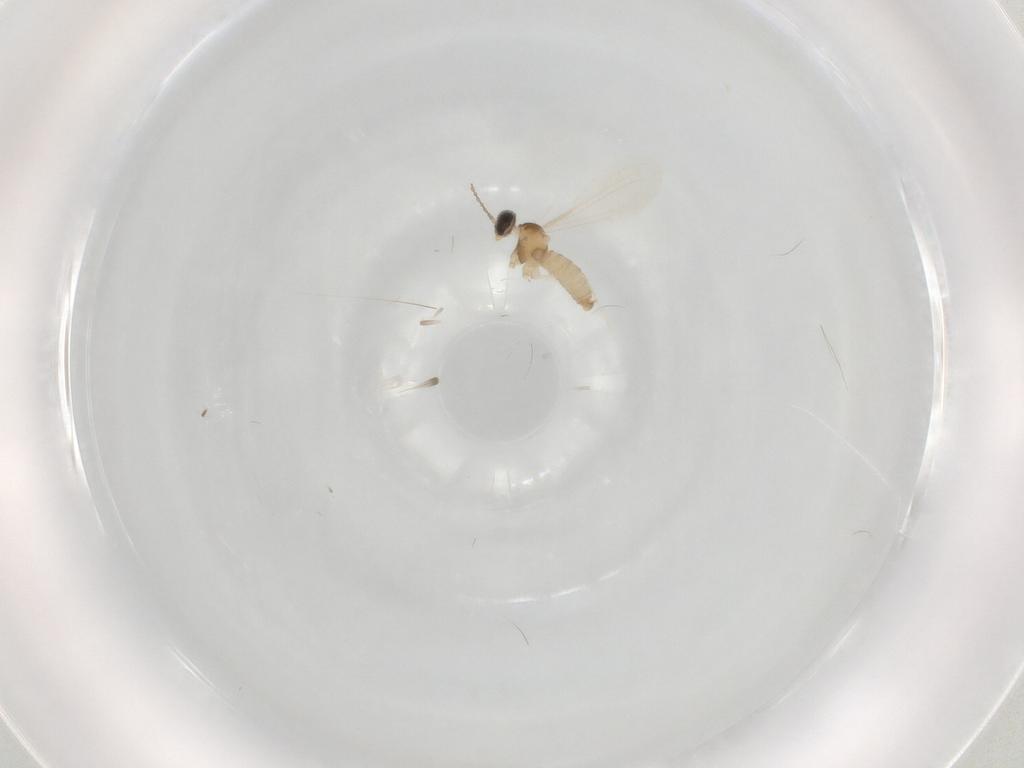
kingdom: Animalia
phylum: Arthropoda
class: Insecta
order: Diptera
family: Cecidomyiidae
